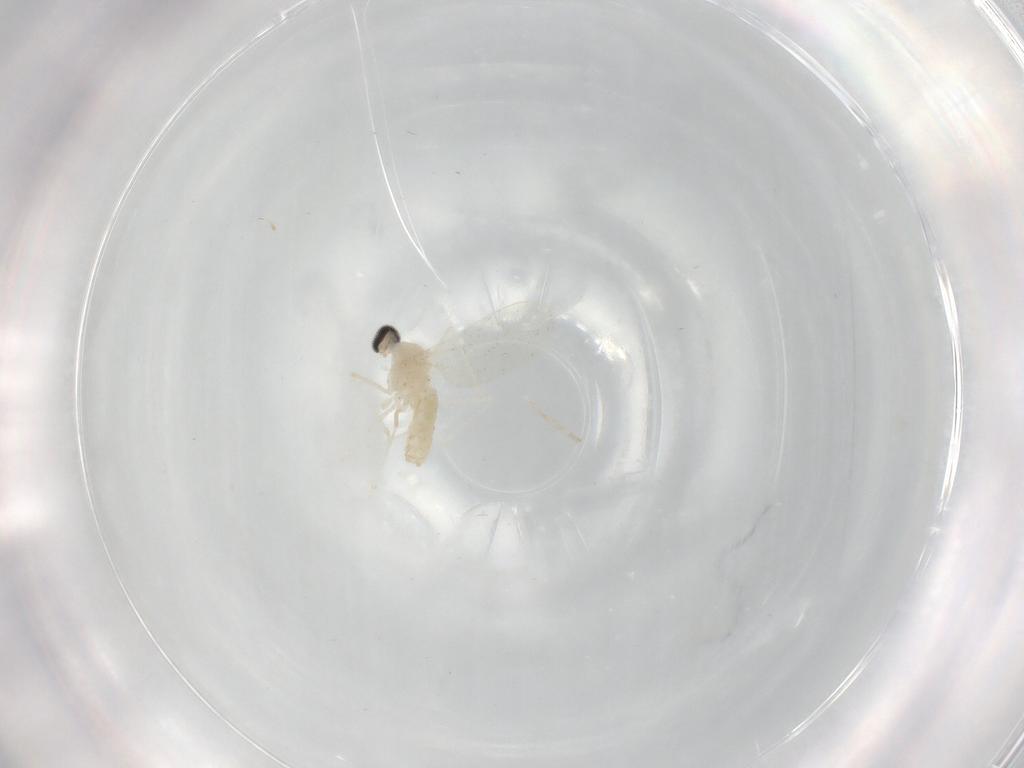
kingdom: Animalia
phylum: Arthropoda
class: Insecta
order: Diptera
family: Cecidomyiidae
